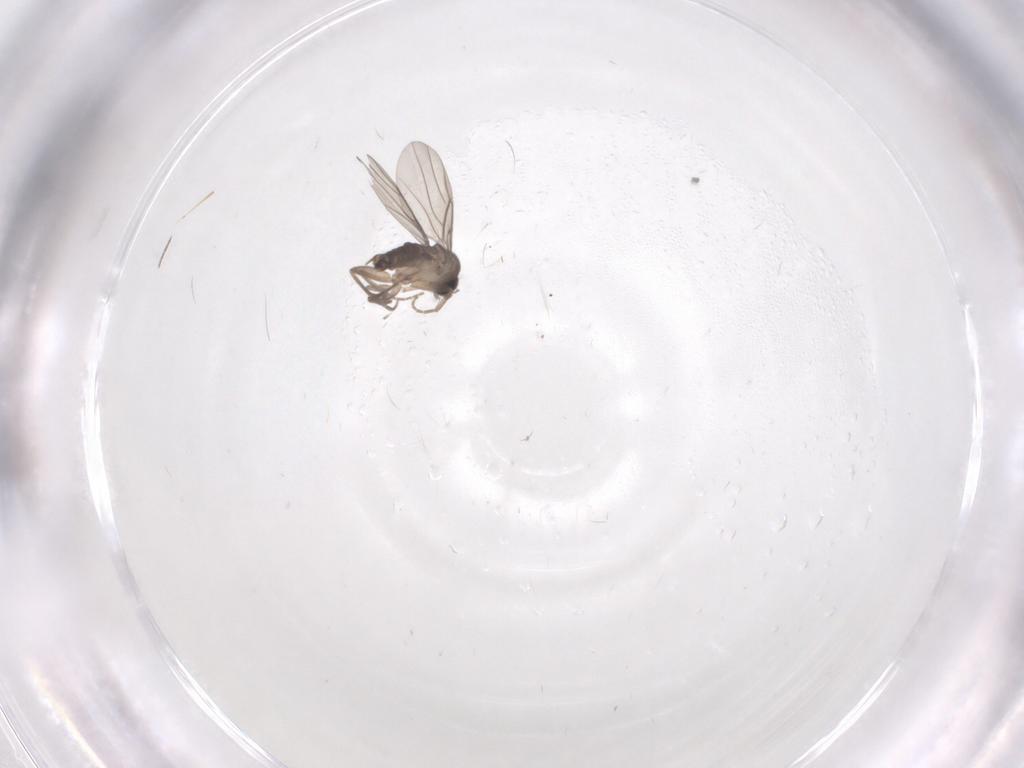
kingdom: Animalia
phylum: Arthropoda
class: Insecta
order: Diptera
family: Phoridae
